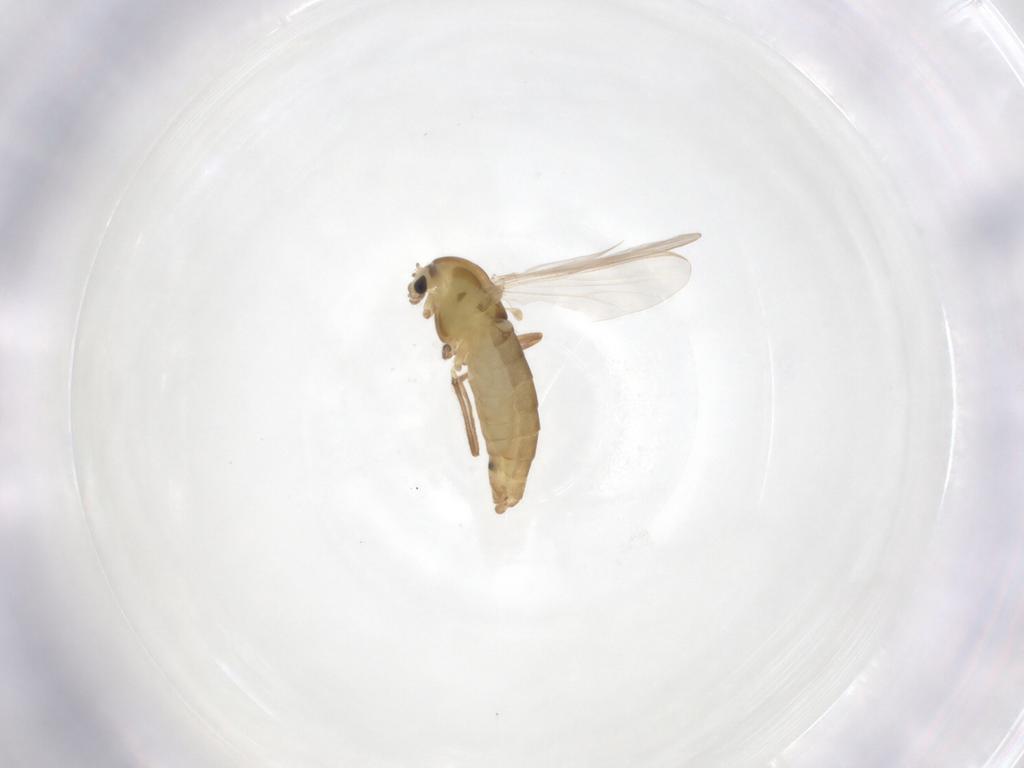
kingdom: Animalia
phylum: Arthropoda
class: Insecta
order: Diptera
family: Chironomidae
